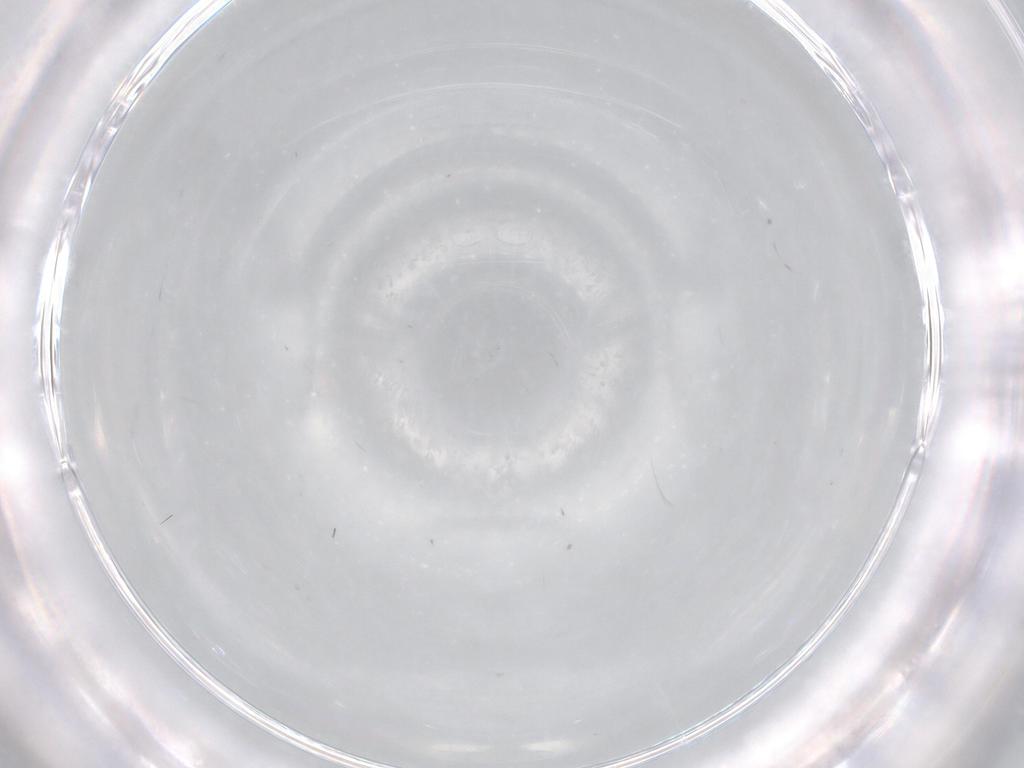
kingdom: Animalia
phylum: Arthropoda
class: Insecta
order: Hymenoptera
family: Signiphoridae
